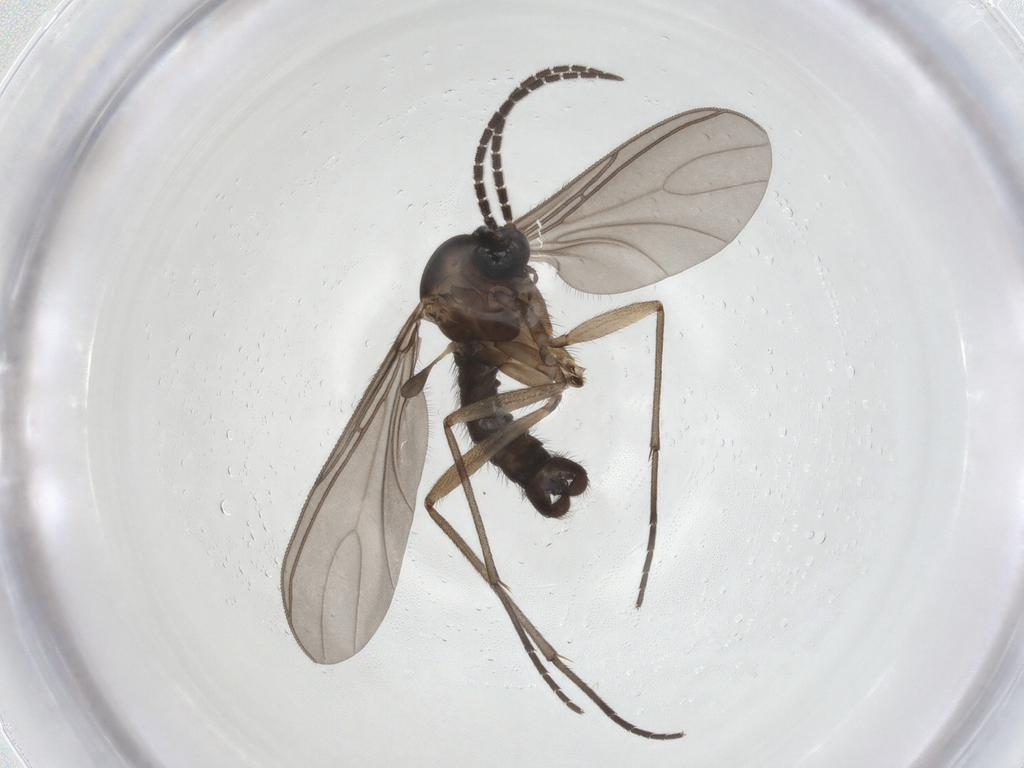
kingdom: Animalia
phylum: Arthropoda
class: Insecta
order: Diptera
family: Sciaridae
